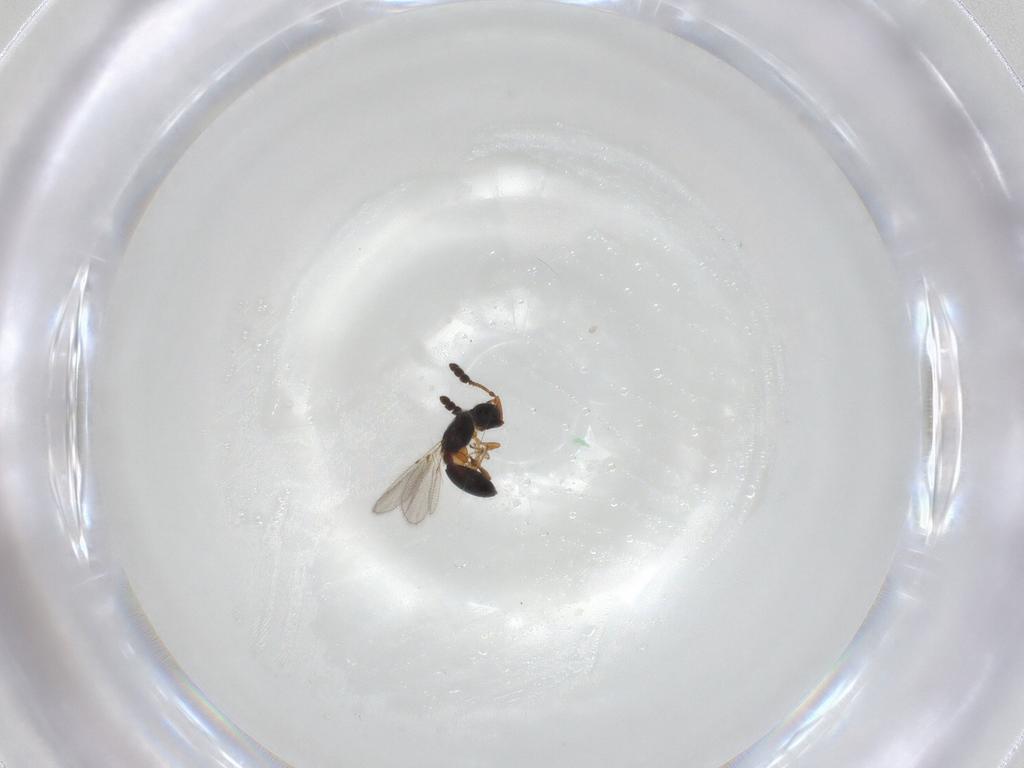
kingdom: Animalia
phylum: Arthropoda
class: Insecta
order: Hymenoptera
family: Diapriidae
